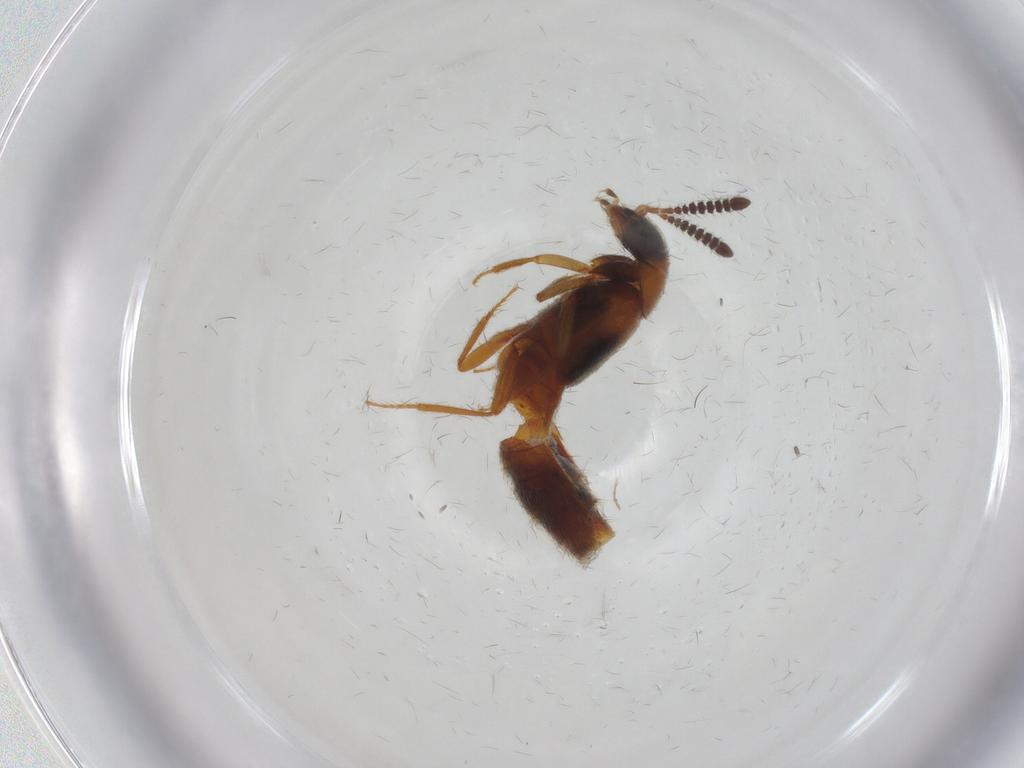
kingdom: Animalia
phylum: Arthropoda
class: Insecta
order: Coleoptera
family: Staphylinidae
